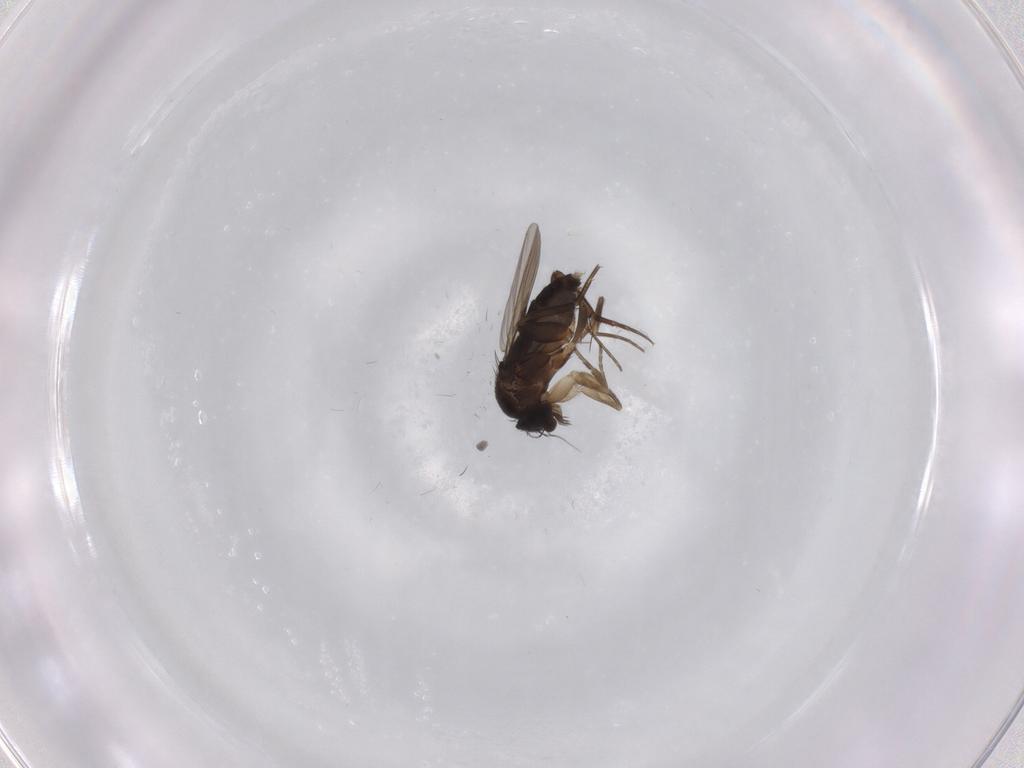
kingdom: Animalia
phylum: Arthropoda
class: Insecta
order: Diptera
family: Phoridae
